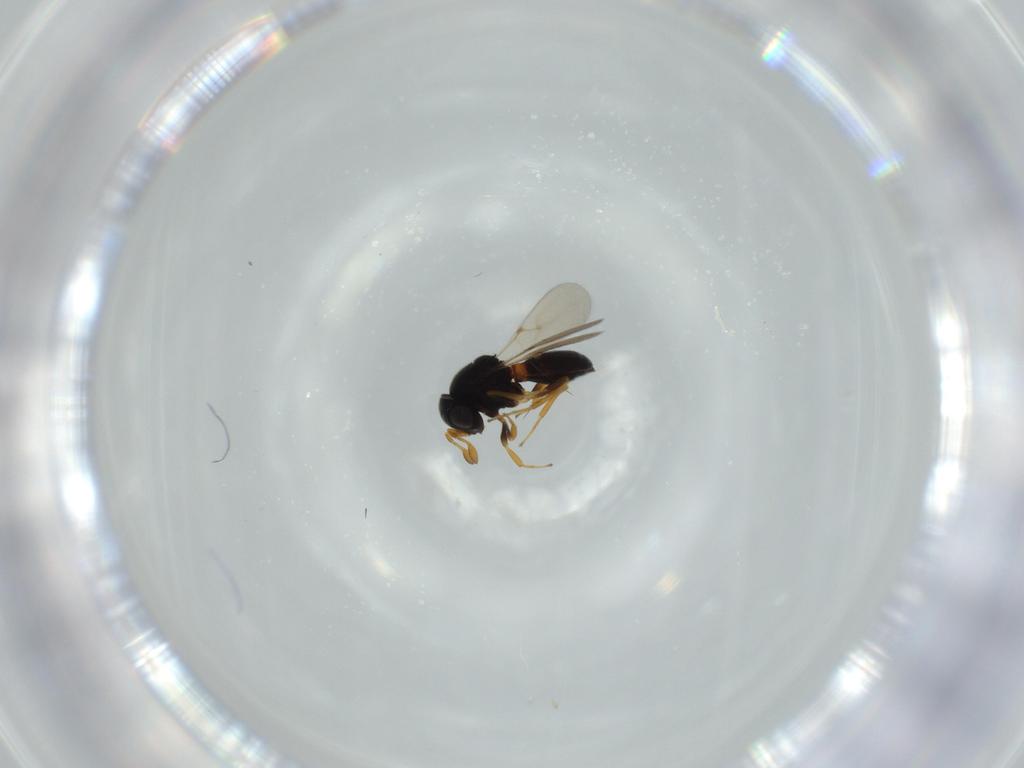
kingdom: Animalia
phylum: Arthropoda
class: Insecta
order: Hymenoptera
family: Scelionidae
